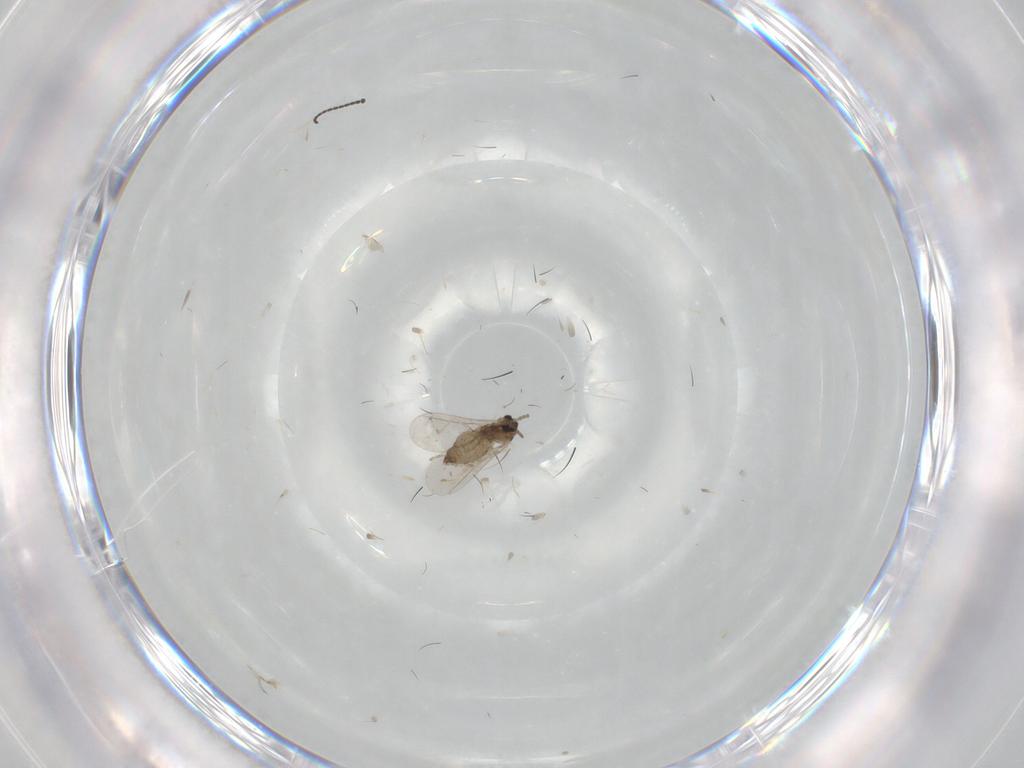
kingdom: Animalia
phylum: Arthropoda
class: Insecta
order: Diptera
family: Cecidomyiidae
